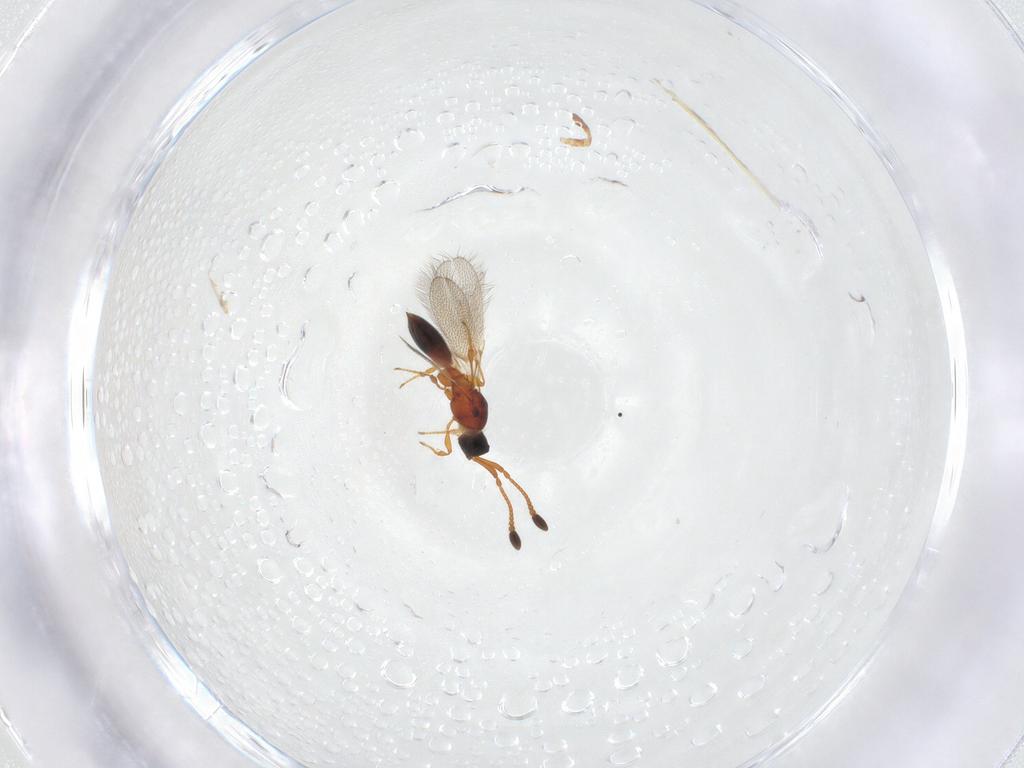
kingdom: Animalia
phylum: Arthropoda
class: Insecta
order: Hymenoptera
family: Diapriidae
